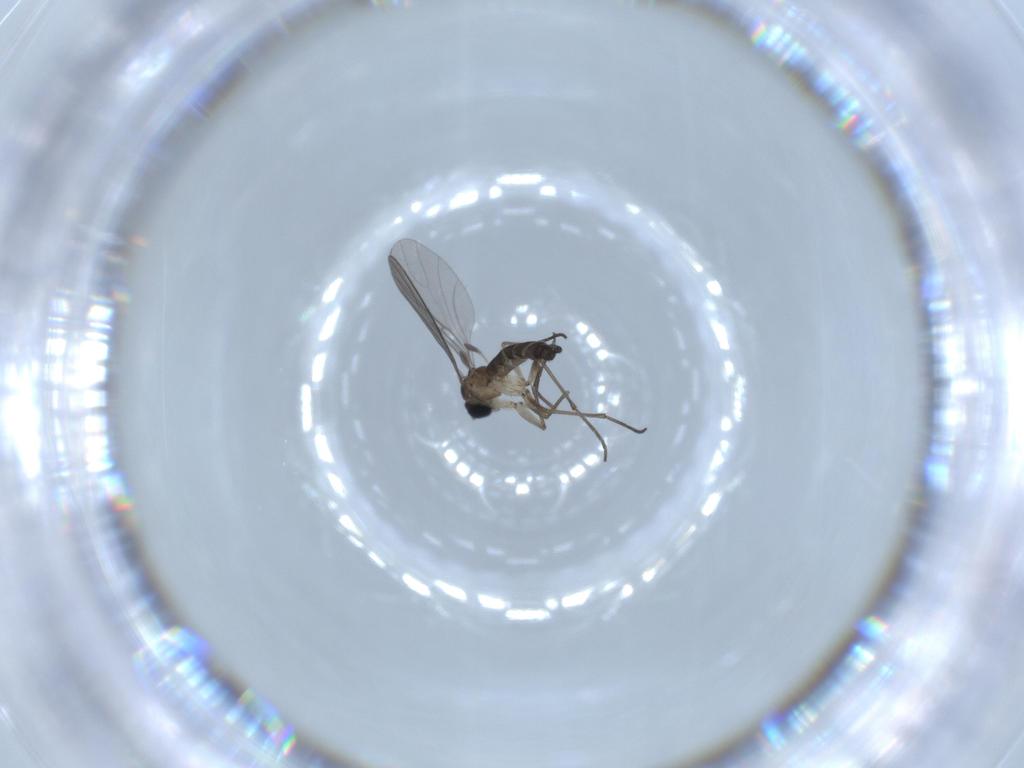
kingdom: Animalia
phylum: Arthropoda
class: Insecta
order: Diptera
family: Sciaridae
